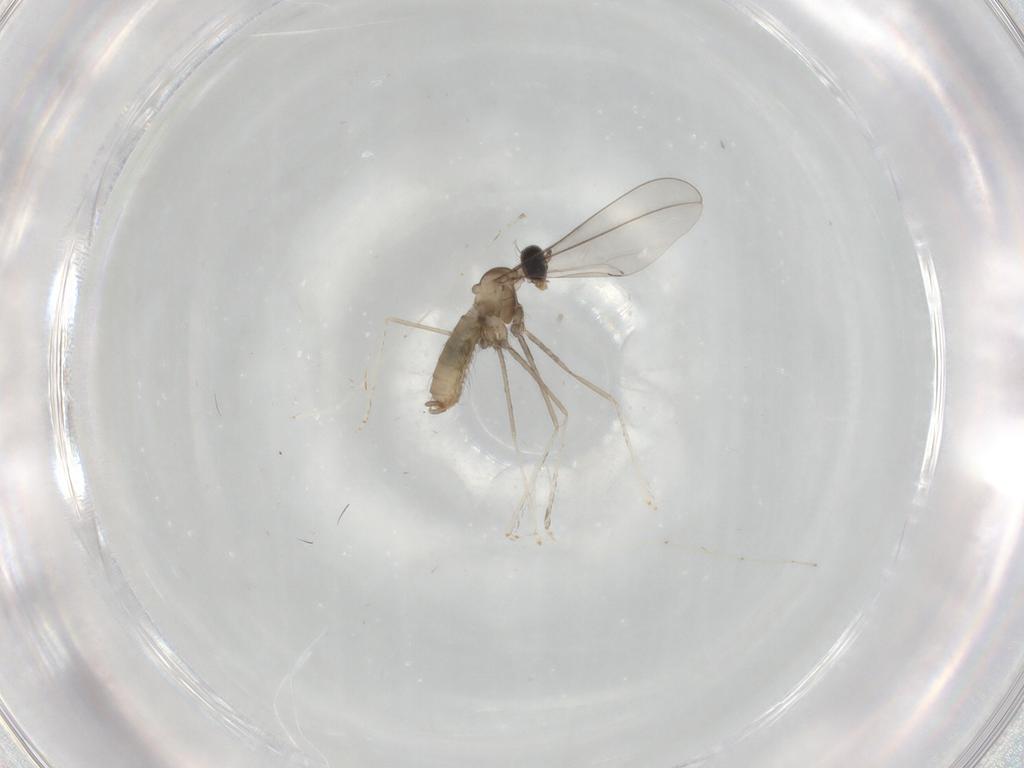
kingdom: Animalia
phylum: Arthropoda
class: Insecta
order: Diptera
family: Cecidomyiidae
